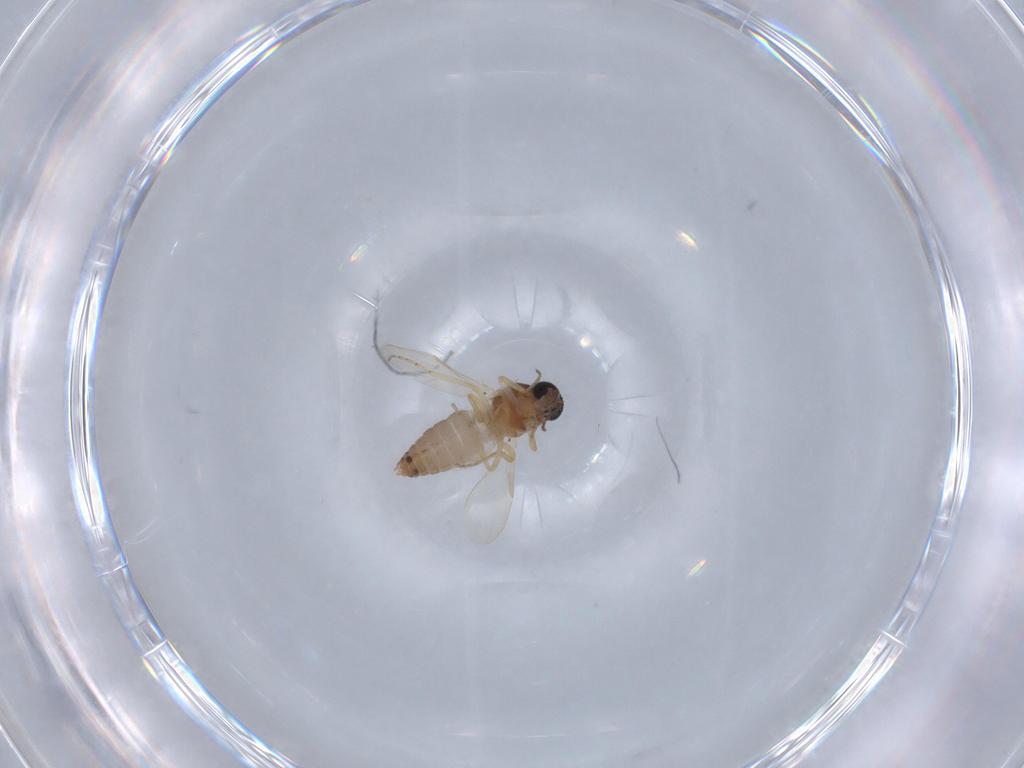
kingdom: Animalia
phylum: Arthropoda
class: Insecta
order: Diptera
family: Ceratopogonidae
